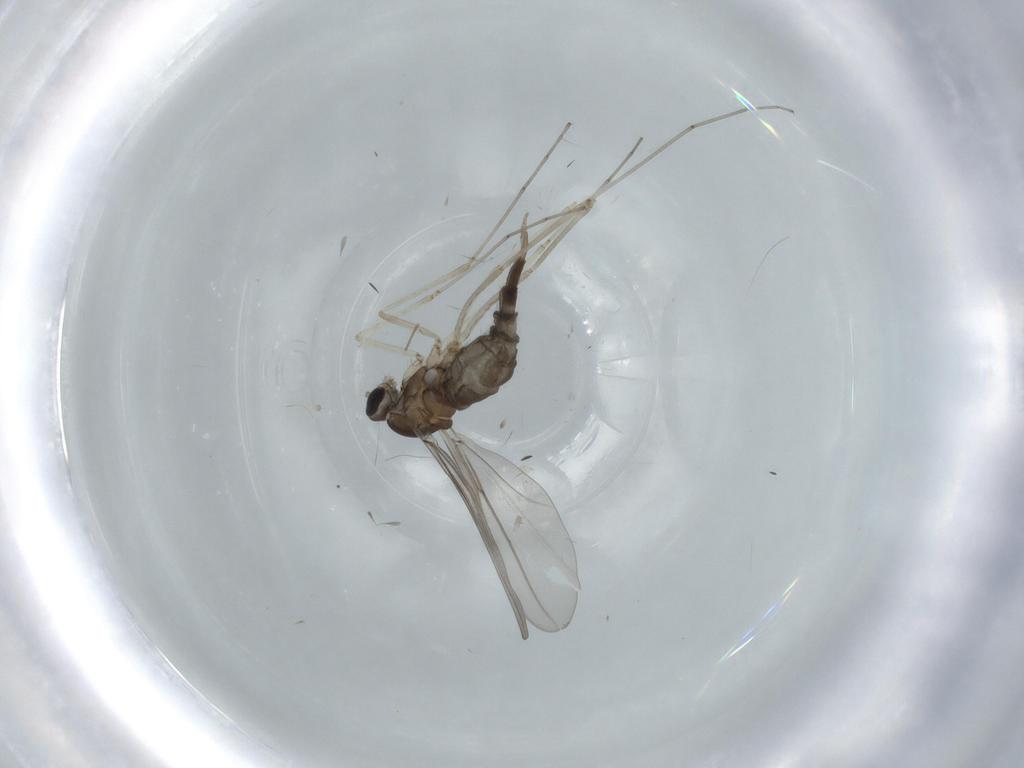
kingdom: Animalia
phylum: Arthropoda
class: Insecta
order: Diptera
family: Cecidomyiidae
